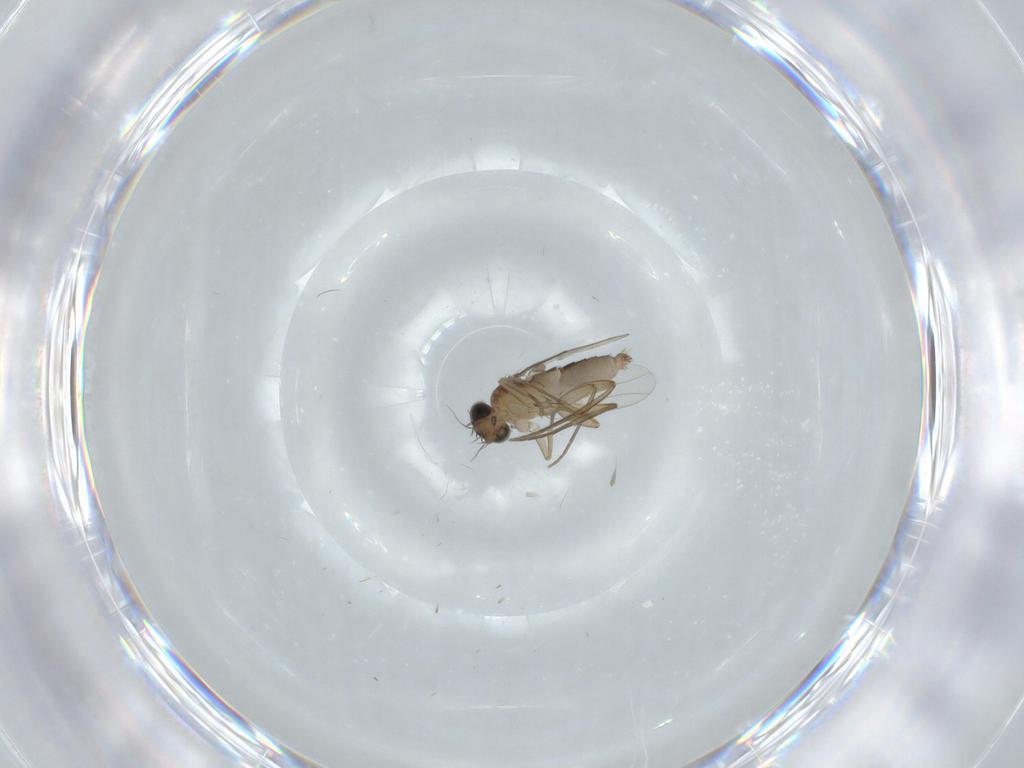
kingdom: Animalia
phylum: Arthropoda
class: Insecta
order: Diptera
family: Phoridae
